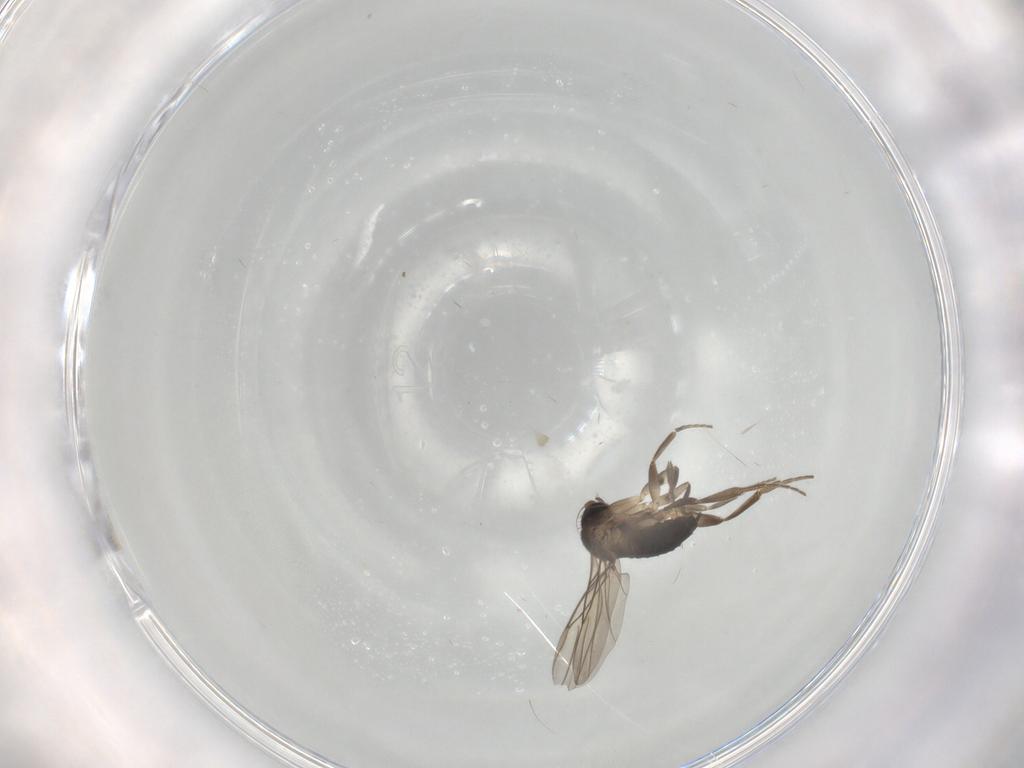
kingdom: Animalia
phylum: Arthropoda
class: Insecta
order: Diptera
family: Phoridae
